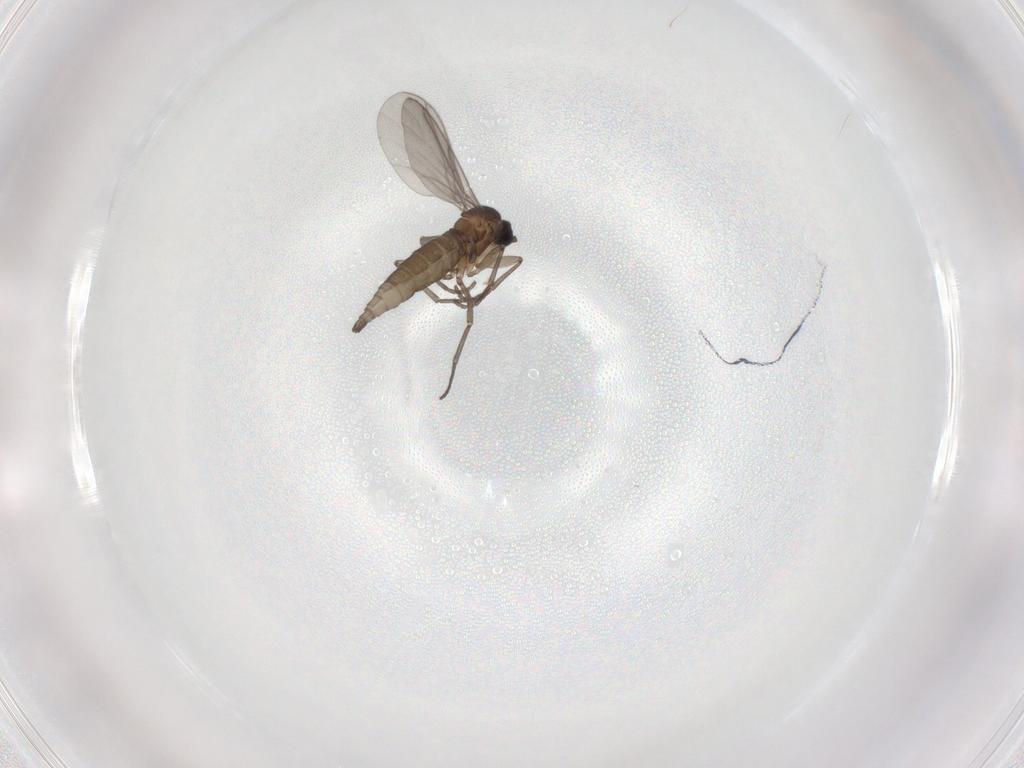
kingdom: Animalia
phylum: Arthropoda
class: Insecta
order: Diptera
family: Sciaridae
